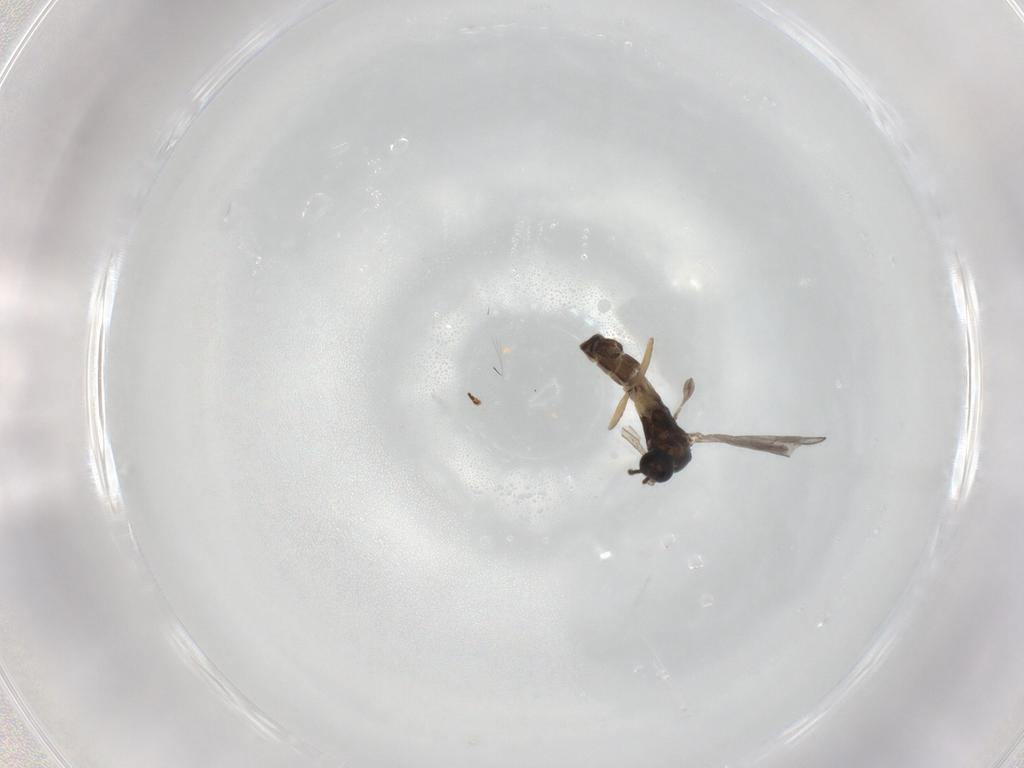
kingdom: Animalia
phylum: Arthropoda
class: Insecta
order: Diptera
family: Sciaridae
